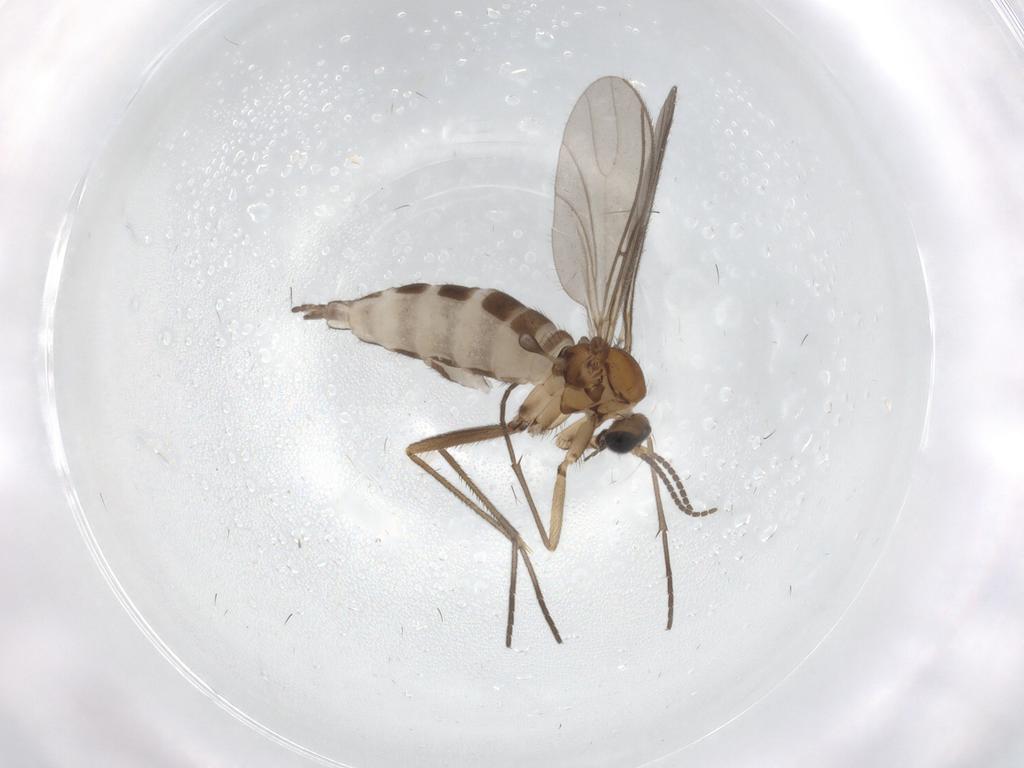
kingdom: Animalia
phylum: Arthropoda
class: Insecta
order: Diptera
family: Sciaridae
